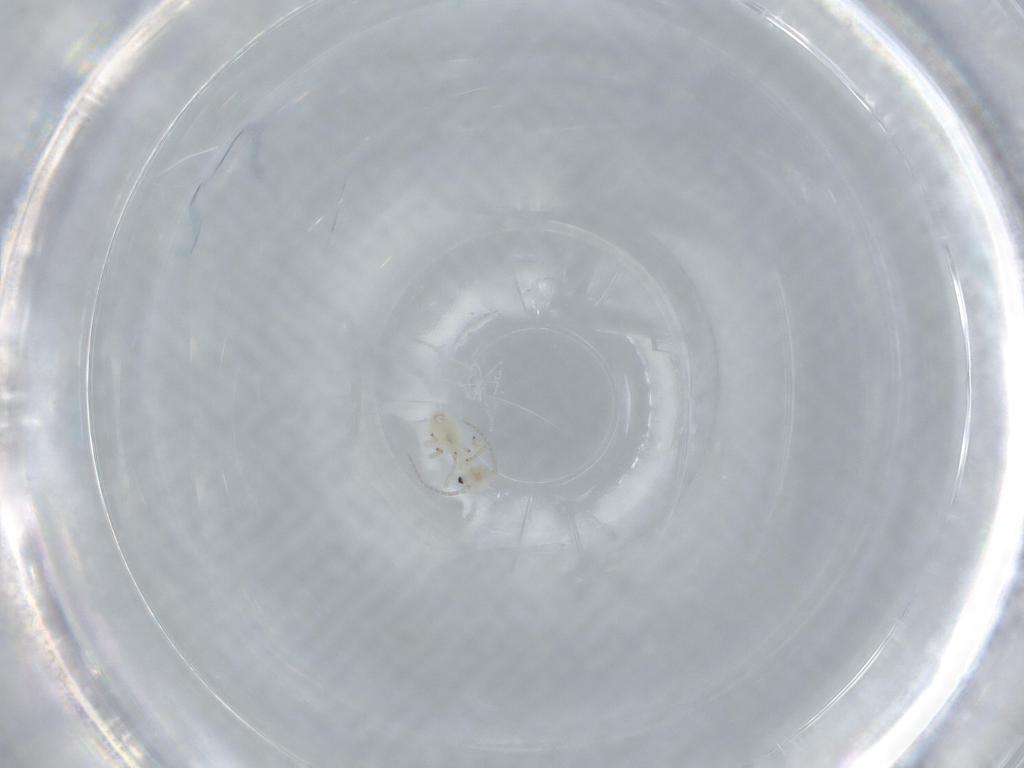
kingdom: Animalia
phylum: Arthropoda
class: Insecta
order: Psocodea
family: Caeciliusidae
